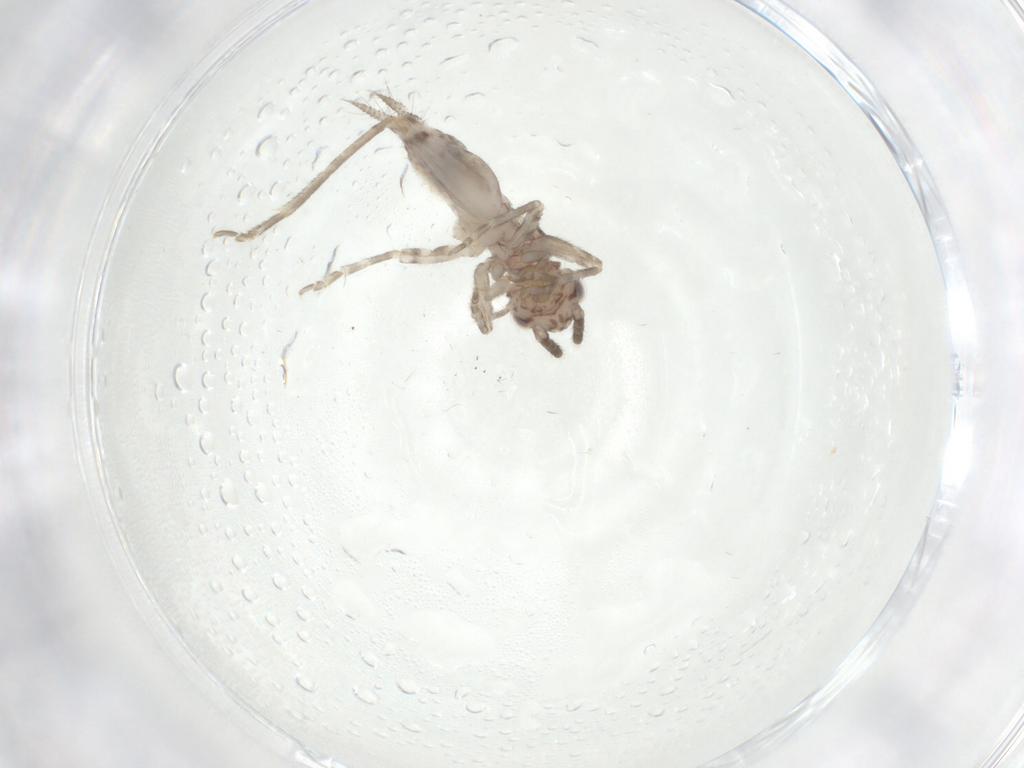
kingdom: Animalia
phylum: Arthropoda
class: Insecta
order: Orthoptera
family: Trigonidiidae
